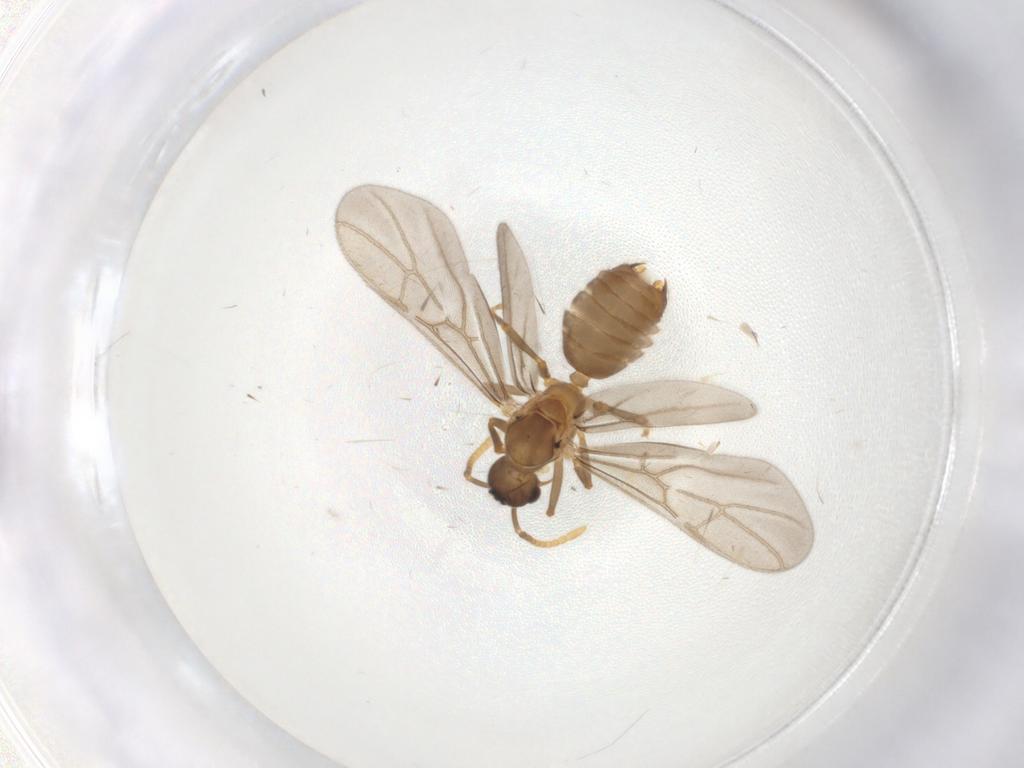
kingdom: Animalia
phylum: Arthropoda
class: Insecta
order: Hymenoptera
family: Formicidae
